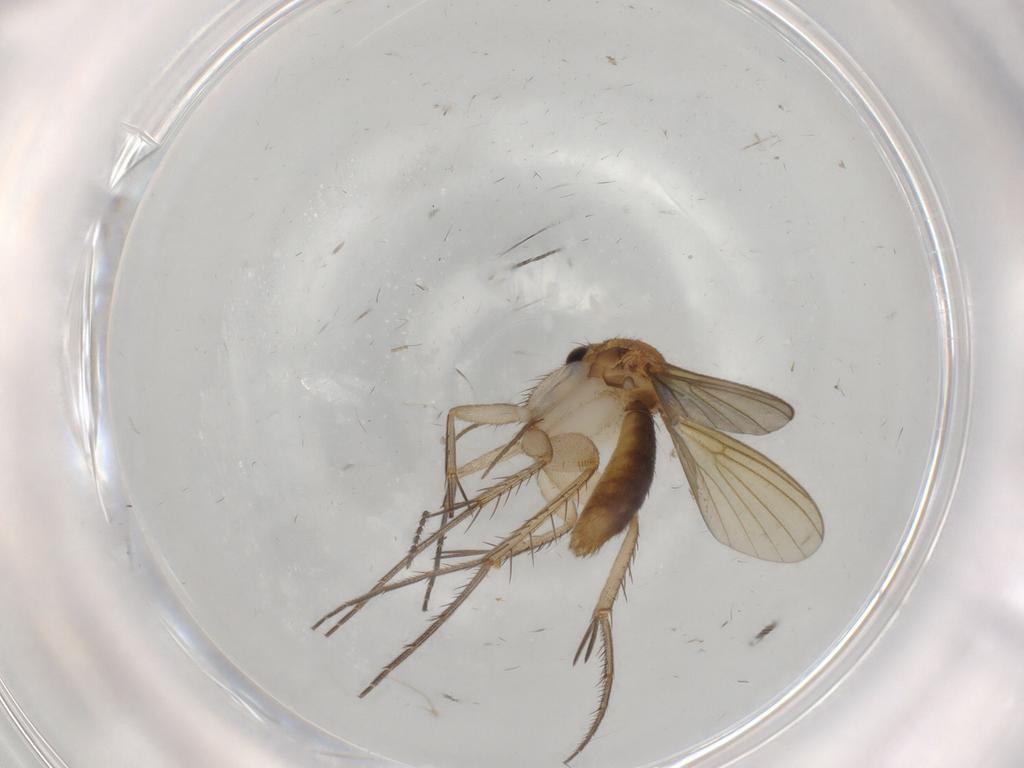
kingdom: Animalia
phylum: Arthropoda
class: Insecta
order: Diptera
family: Mycetophilidae
